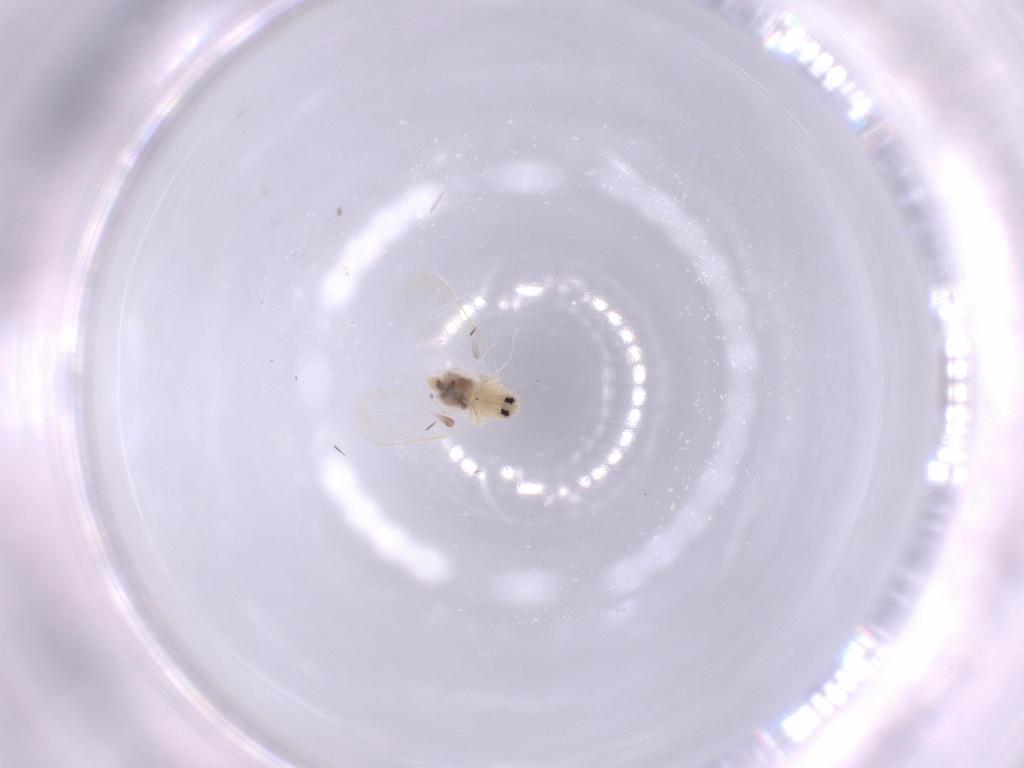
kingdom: Animalia
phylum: Arthropoda
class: Insecta
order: Hemiptera
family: Aleyrodidae
